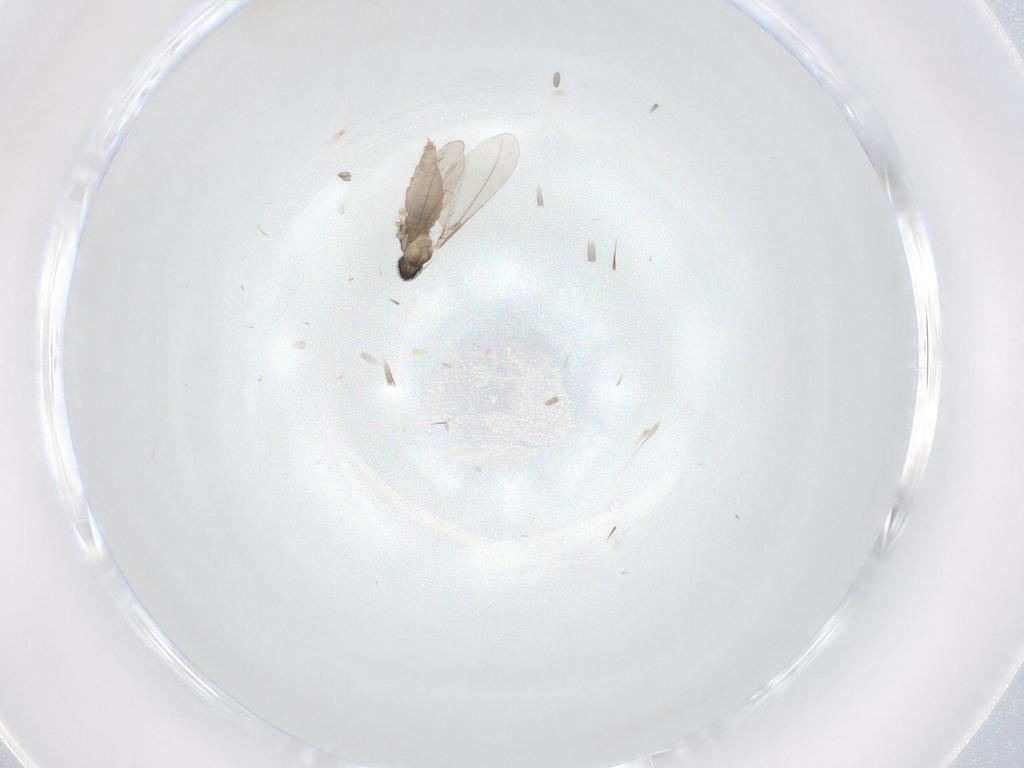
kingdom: Animalia
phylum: Arthropoda
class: Insecta
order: Diptera
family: Cecidomyiidae
